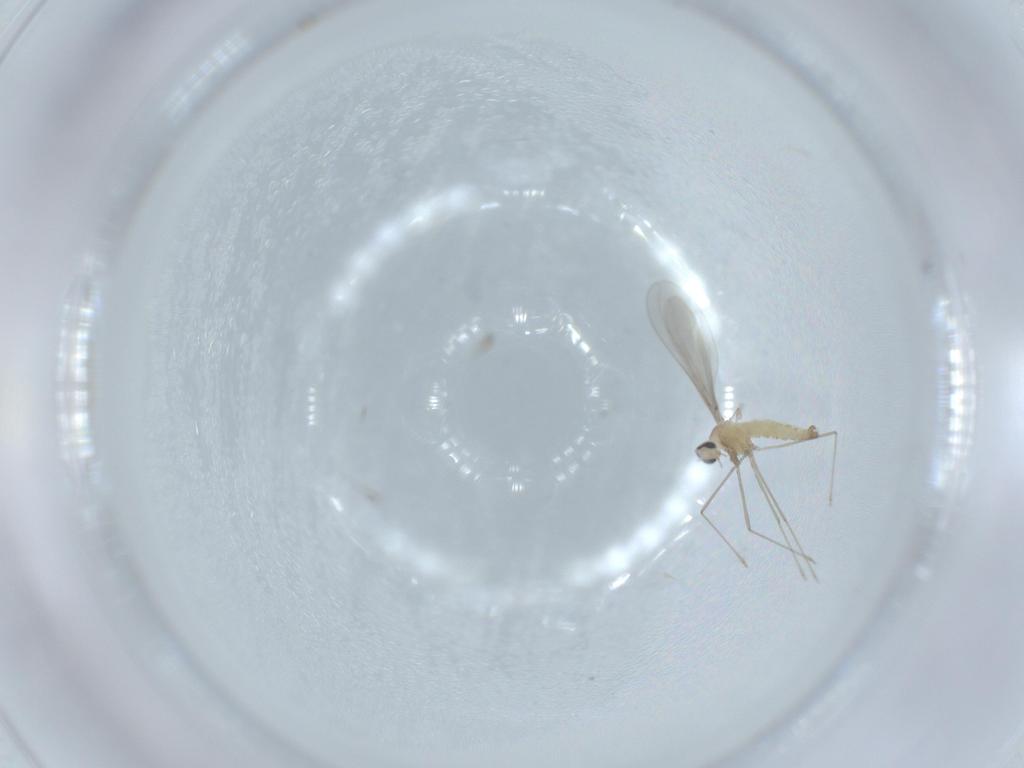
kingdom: Animalia
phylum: Arthropoda
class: Insecta
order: Diptera
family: Cecidomyiidae
